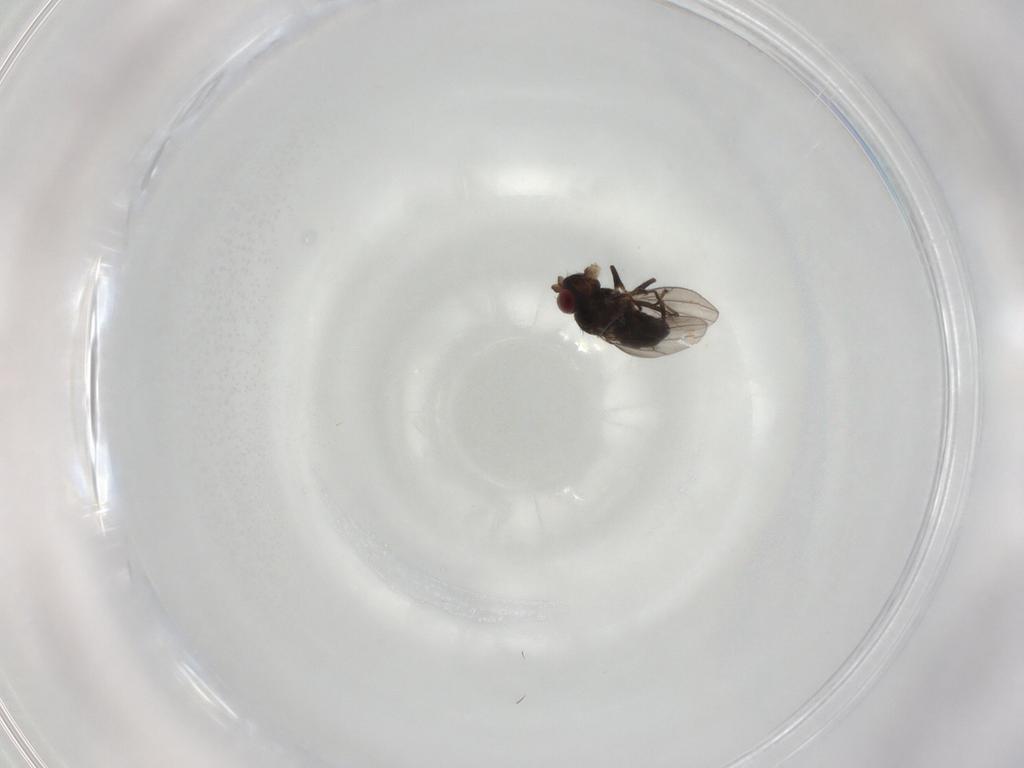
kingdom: Animalia
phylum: Arthropoda
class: Insecta
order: Diptera
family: Ephydridae
